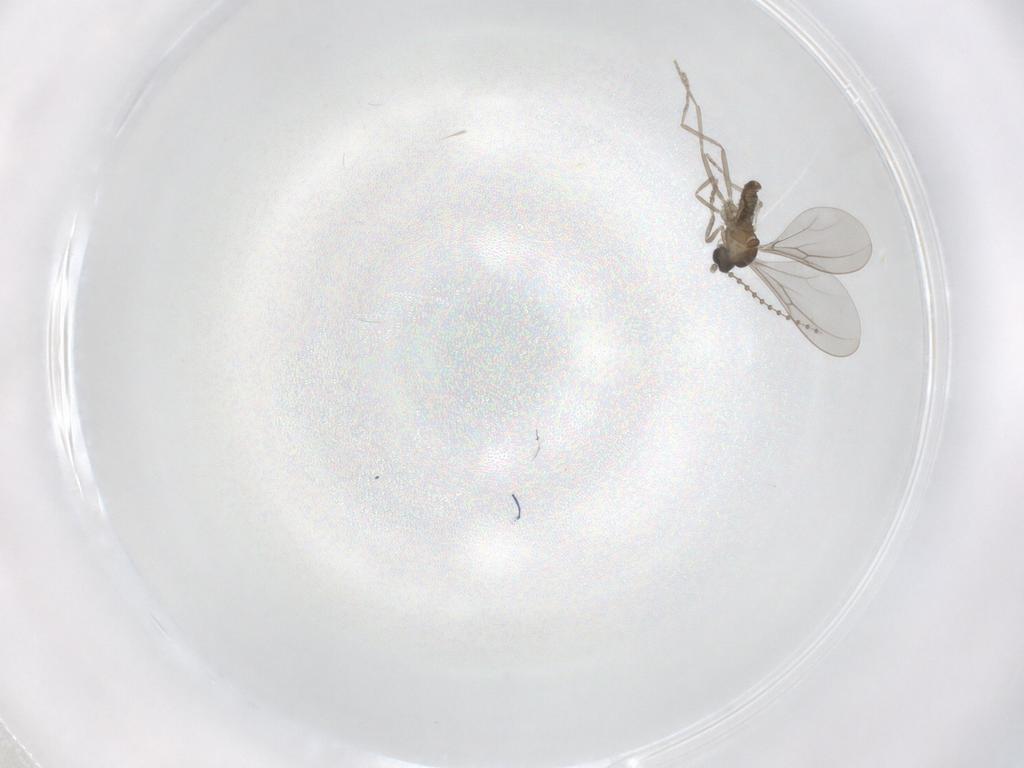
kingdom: Animalia
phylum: Arthropoda
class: Insecta
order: Diptera
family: Cecidomyiidae
